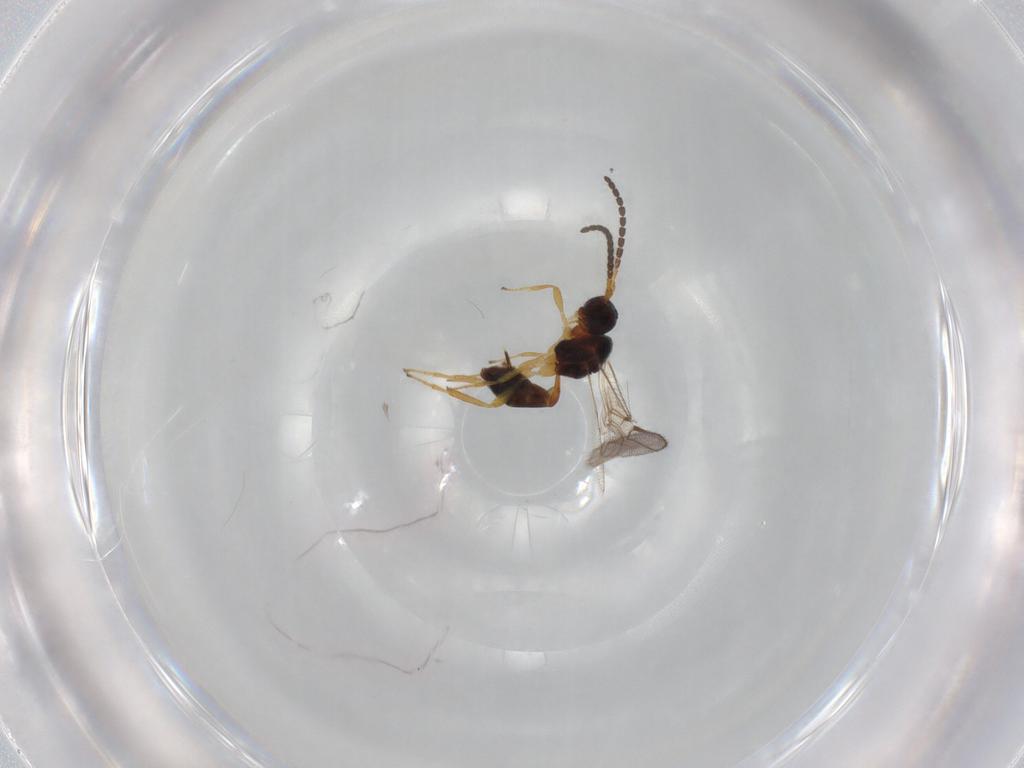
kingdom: Animalia
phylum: Arthropoda
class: Insecta
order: Hymenoptera
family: Braconidae
